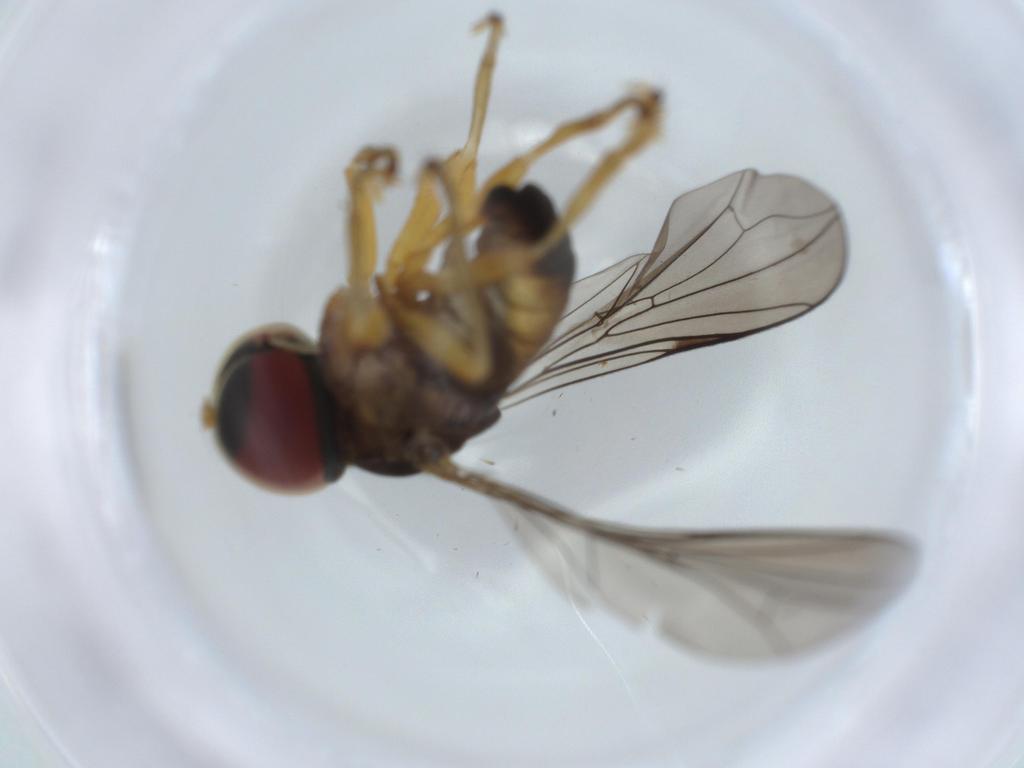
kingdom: Animalia
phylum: Arthropoda
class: Insecta
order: Diptera
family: Pipunculidae
